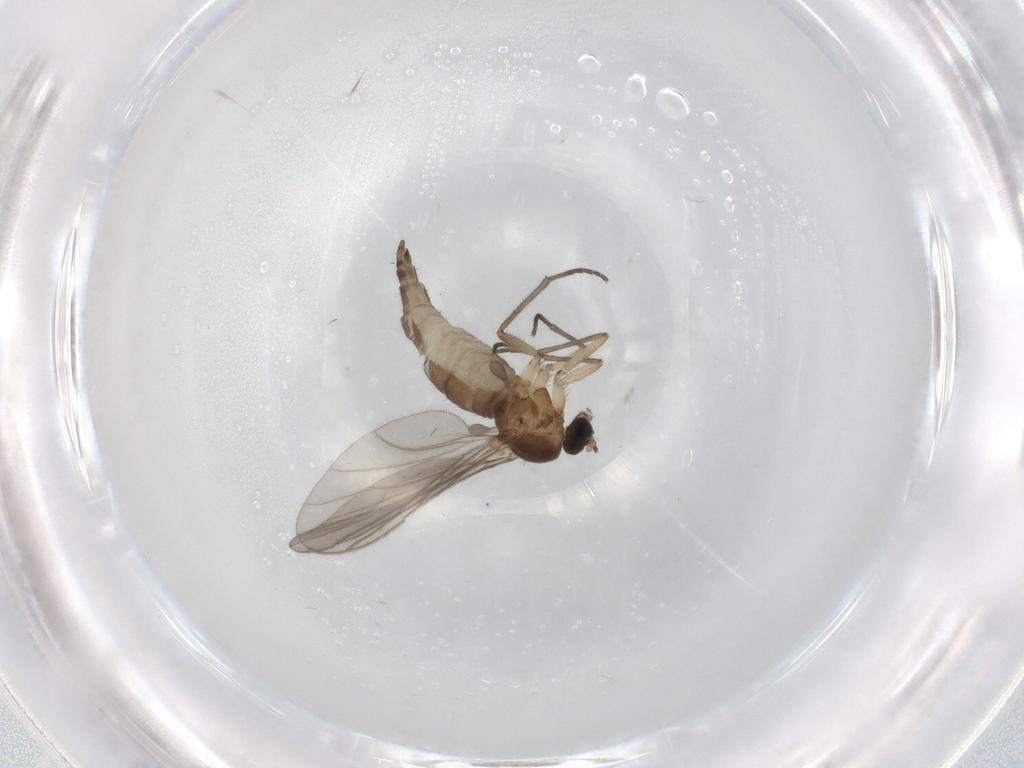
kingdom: Animalia
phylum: Arthropoda
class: Insecta
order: Diptera
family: Sciaridae
